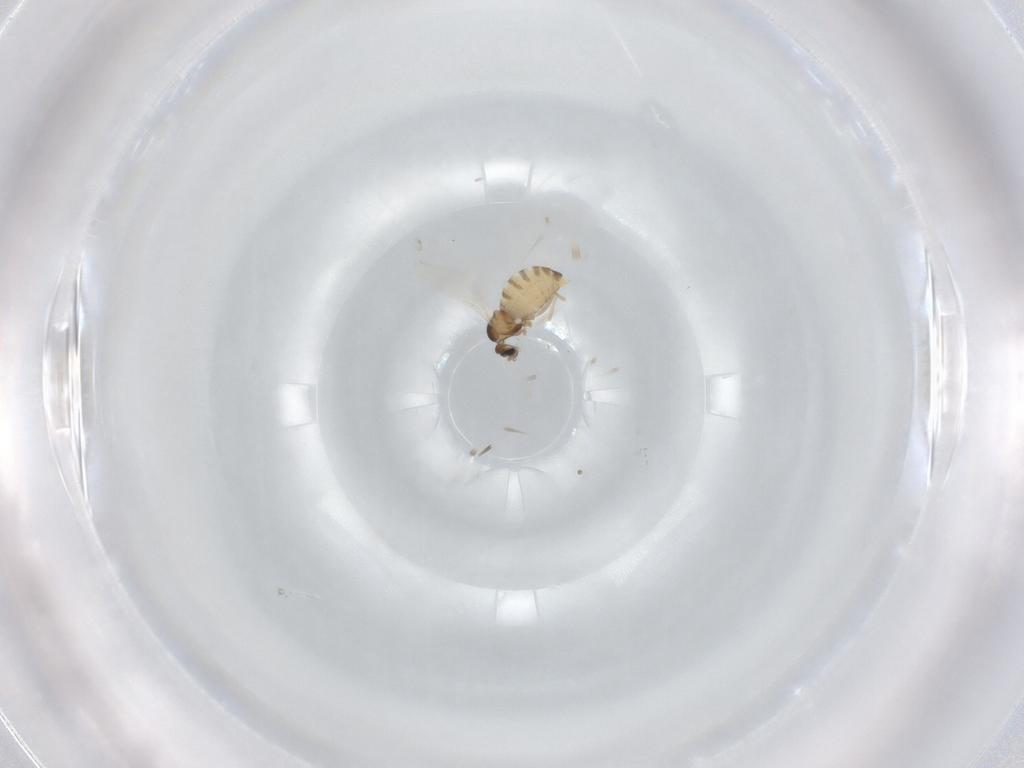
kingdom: Animalia
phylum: Arthropoda
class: Insecta
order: Diptera
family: Cecidomyiidae
